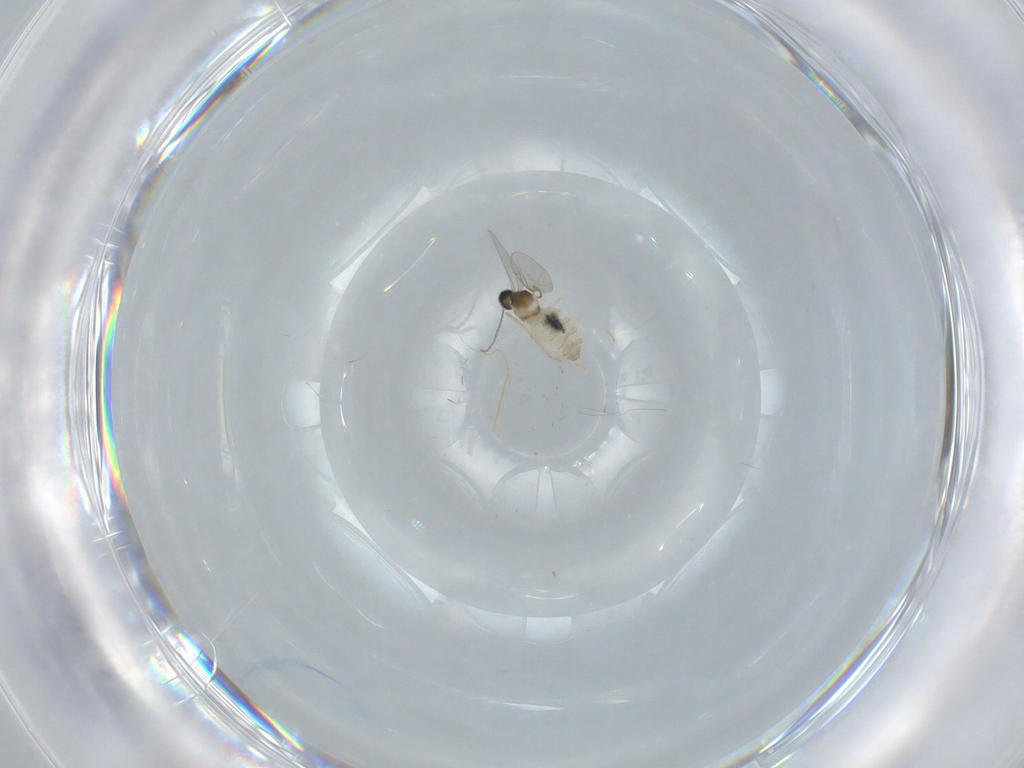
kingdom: Animalia
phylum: Arthropoda
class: Insecta
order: Diptera
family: Cecidomyiidae
